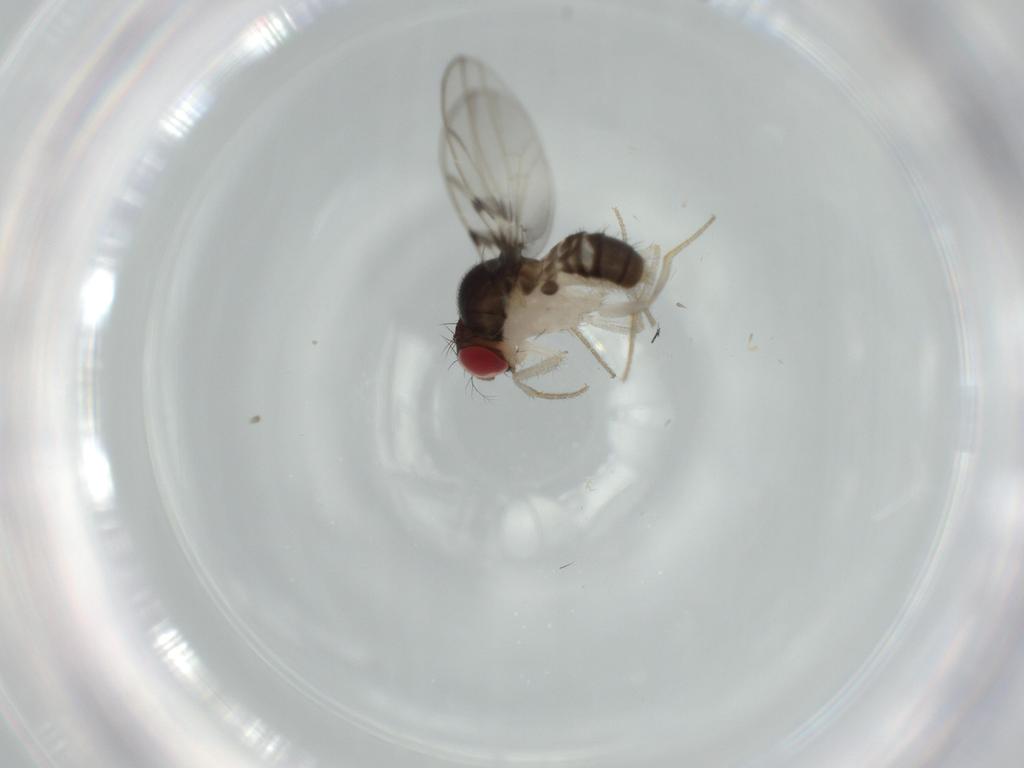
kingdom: Animalia
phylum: Arthropoda
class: Insecta
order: Diptera
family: Drosophilidae
